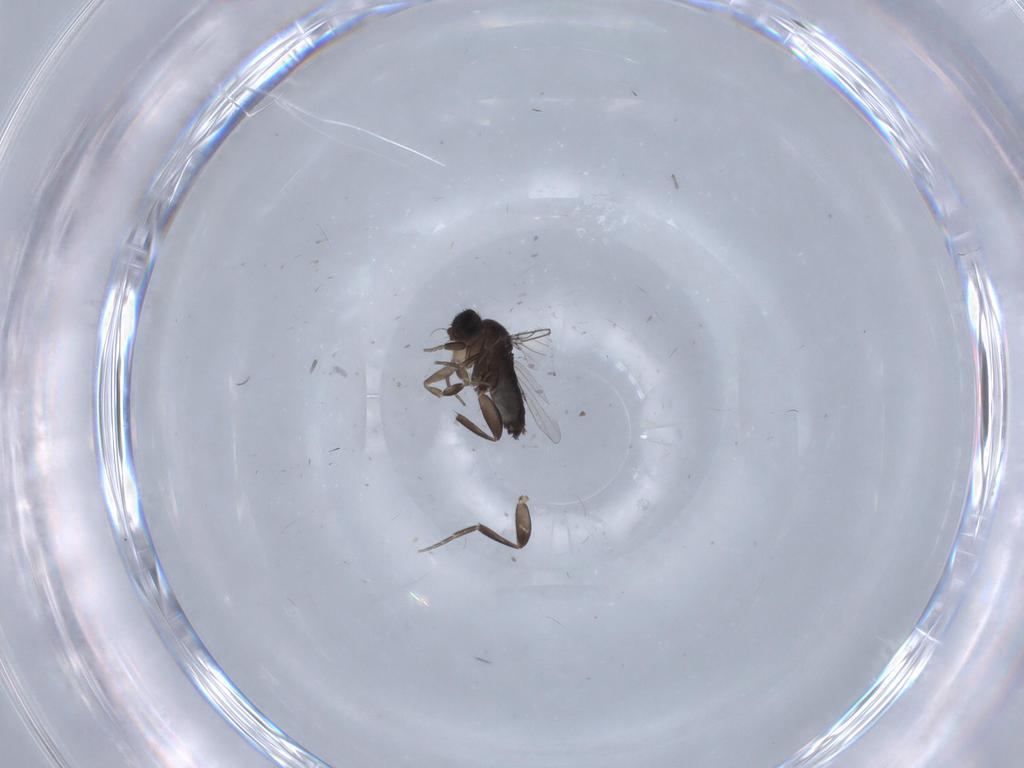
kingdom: Animalia
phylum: Arthropoda
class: Insecta
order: Diptera
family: Phoridae
